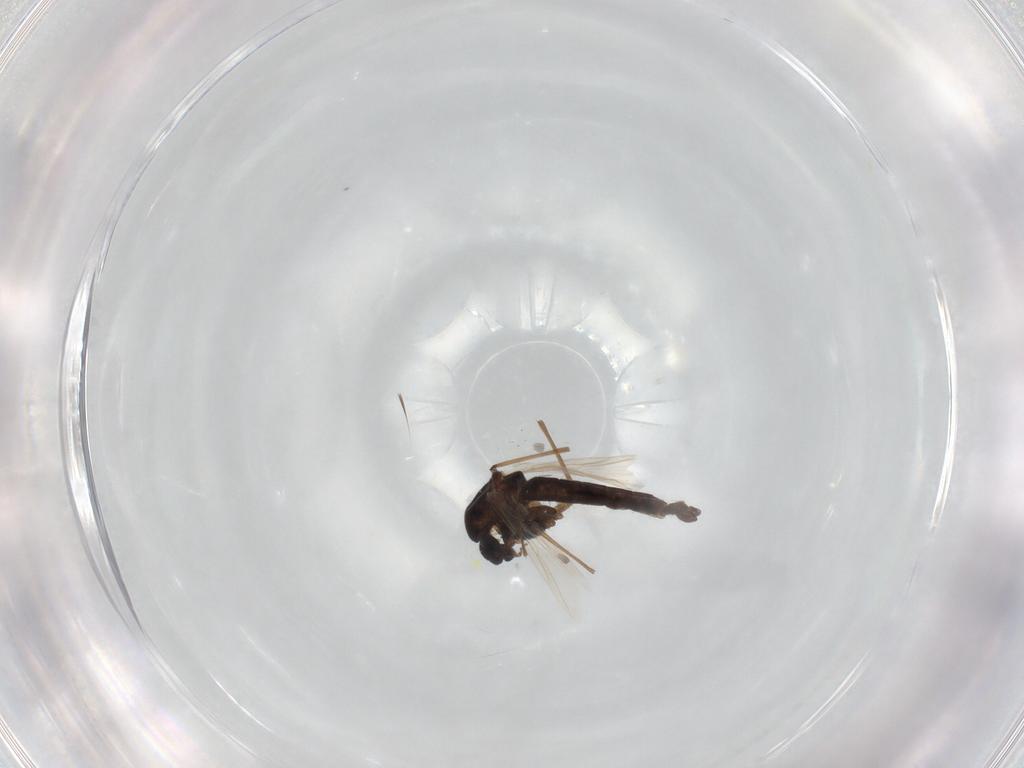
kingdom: Animalia
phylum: Arthropoda
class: Insecta
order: Diptera
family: Chironomidae
